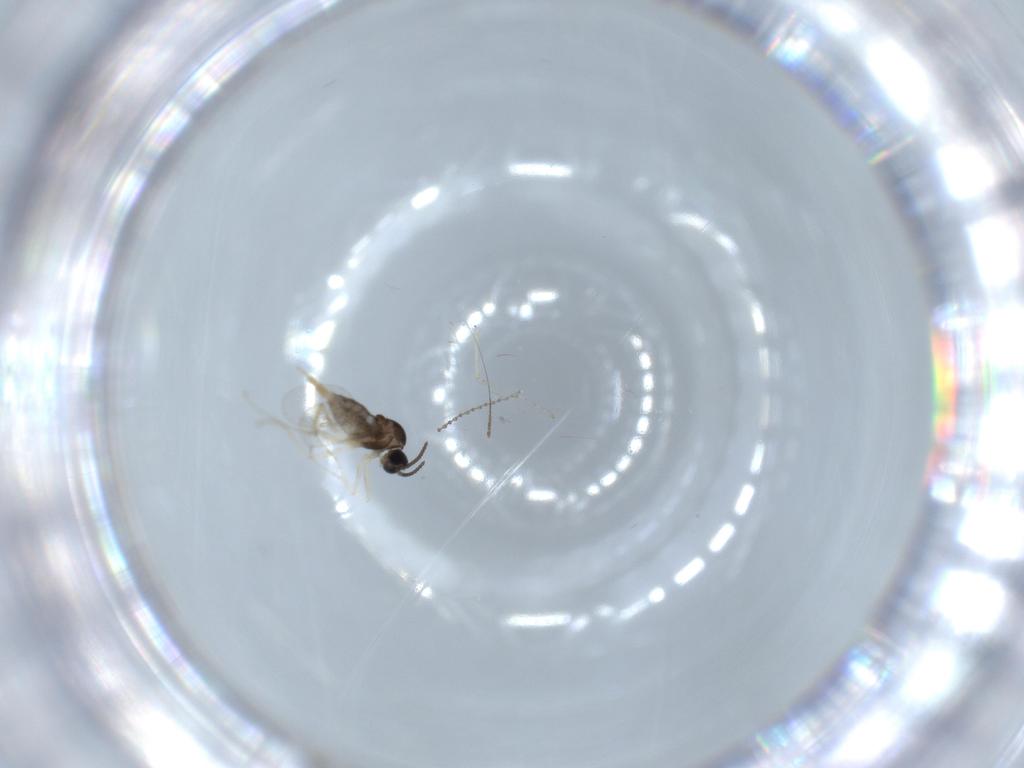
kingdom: Animalia
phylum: Arthropoda
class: Insecta
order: Diptera
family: Cecidomyiidae
